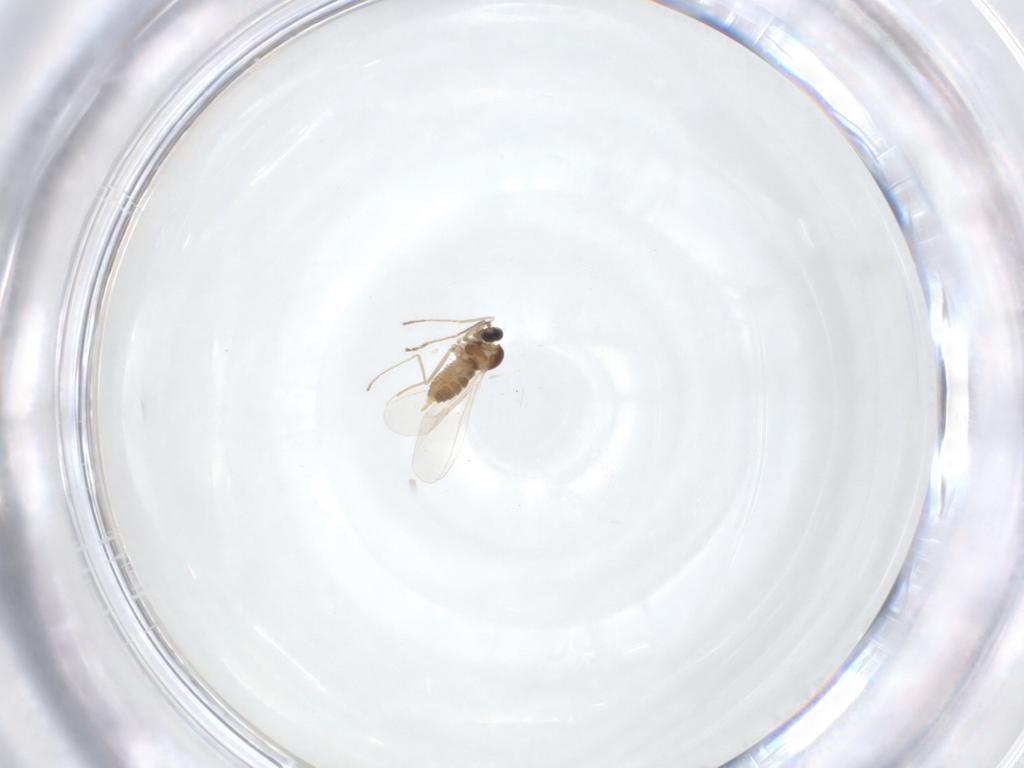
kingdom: Animalia
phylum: Arthropoda
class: Insecta
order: Diptera
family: Cecidomyiidae
